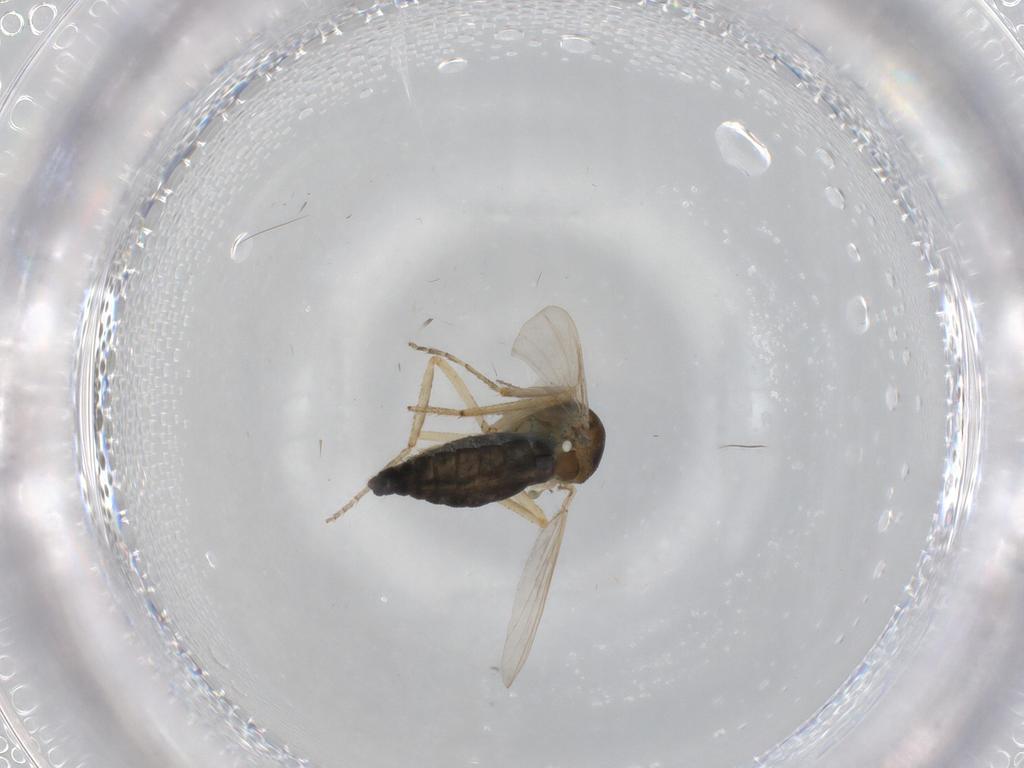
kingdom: Animalia
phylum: Arthropoda
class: Insecta
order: Diptera
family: Ceratopogonidae
